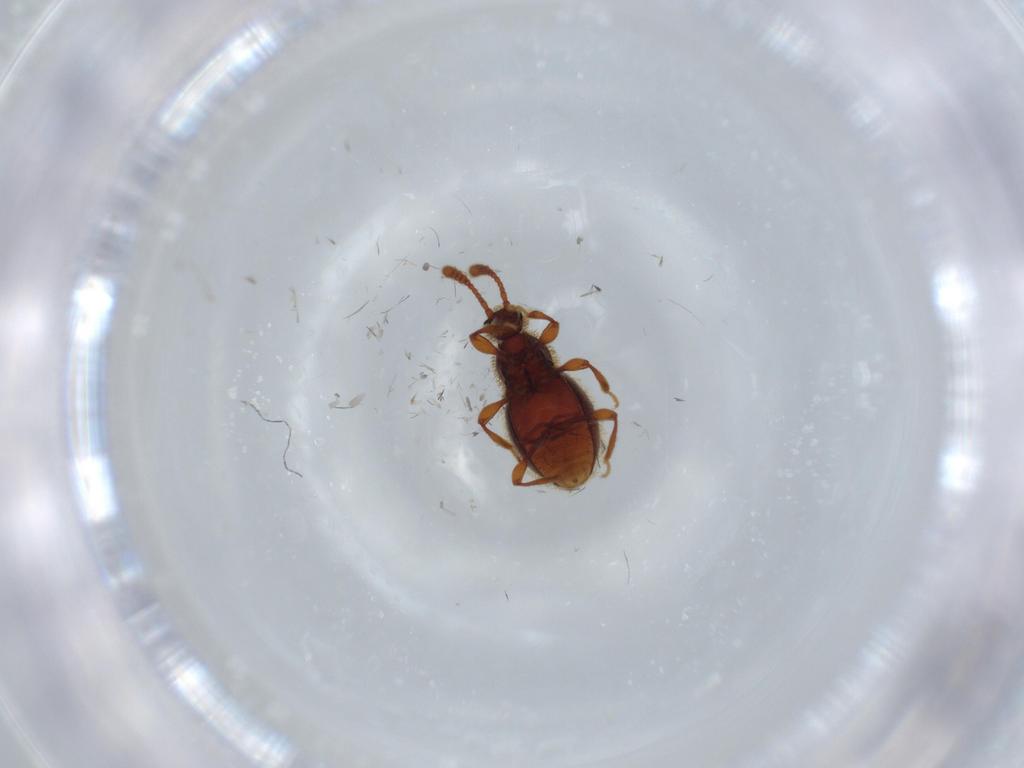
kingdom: Animalia
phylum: Arthropoda
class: Insecta
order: Coleoptera
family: Staphylinidae
